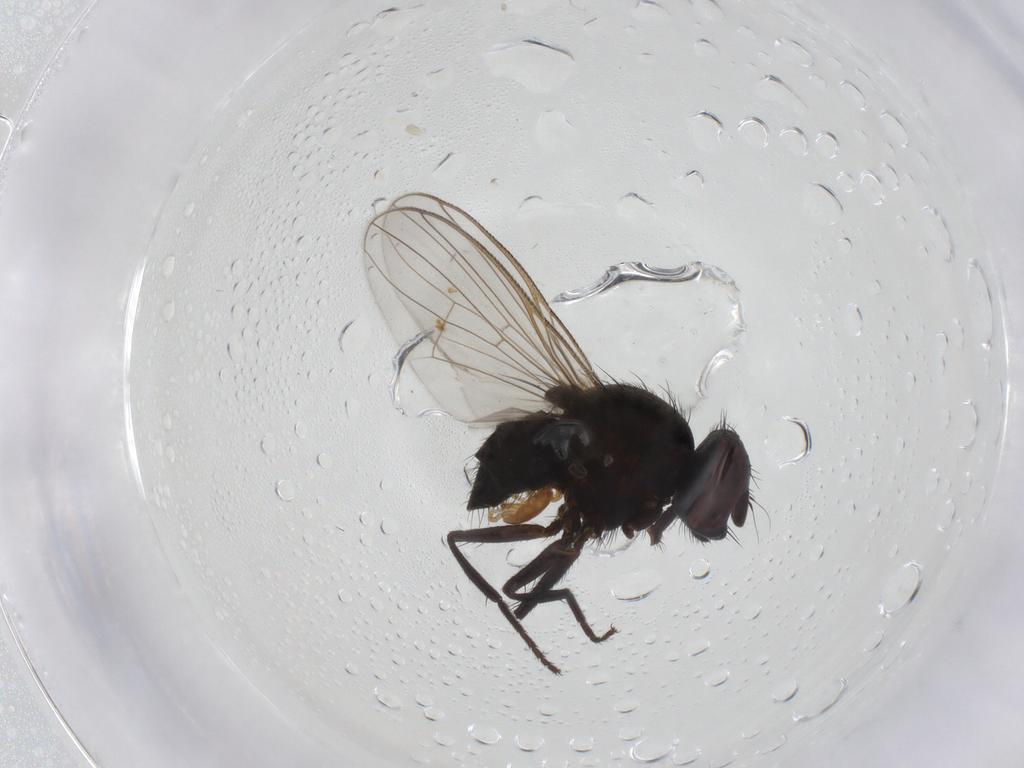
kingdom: Animalia
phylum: Arthropoda
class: Insecta
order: Diptera
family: Muscidae
